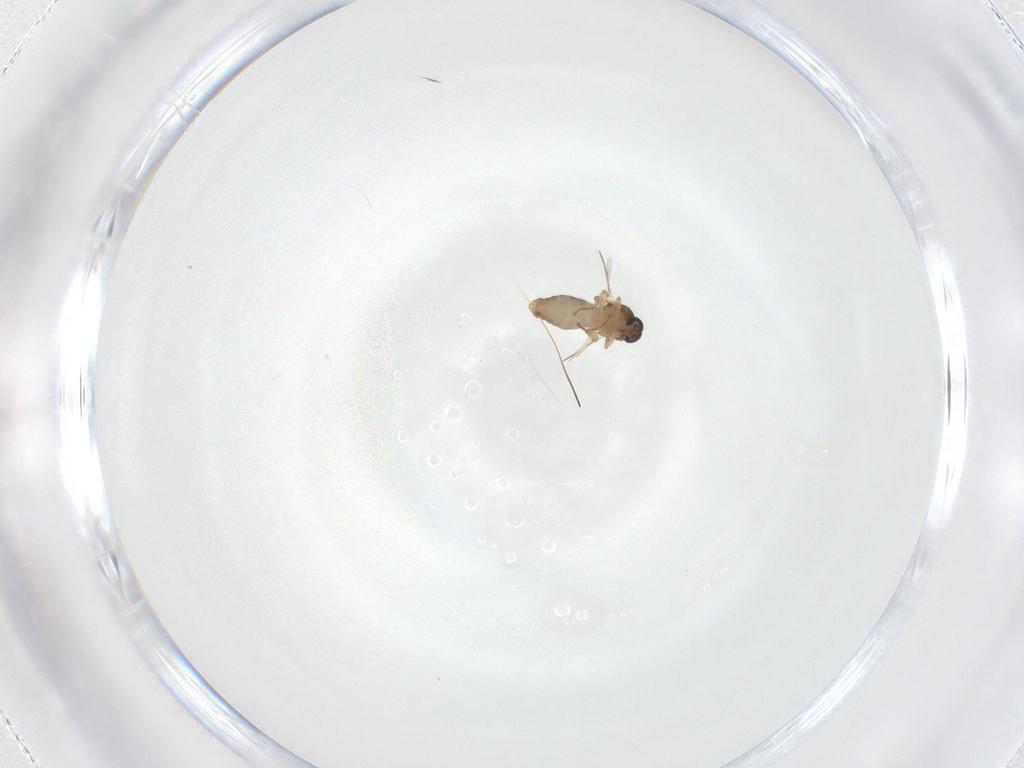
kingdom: Animalia
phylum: Arthropoda
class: Insecta
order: Diptera
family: Ceratopogonidae
